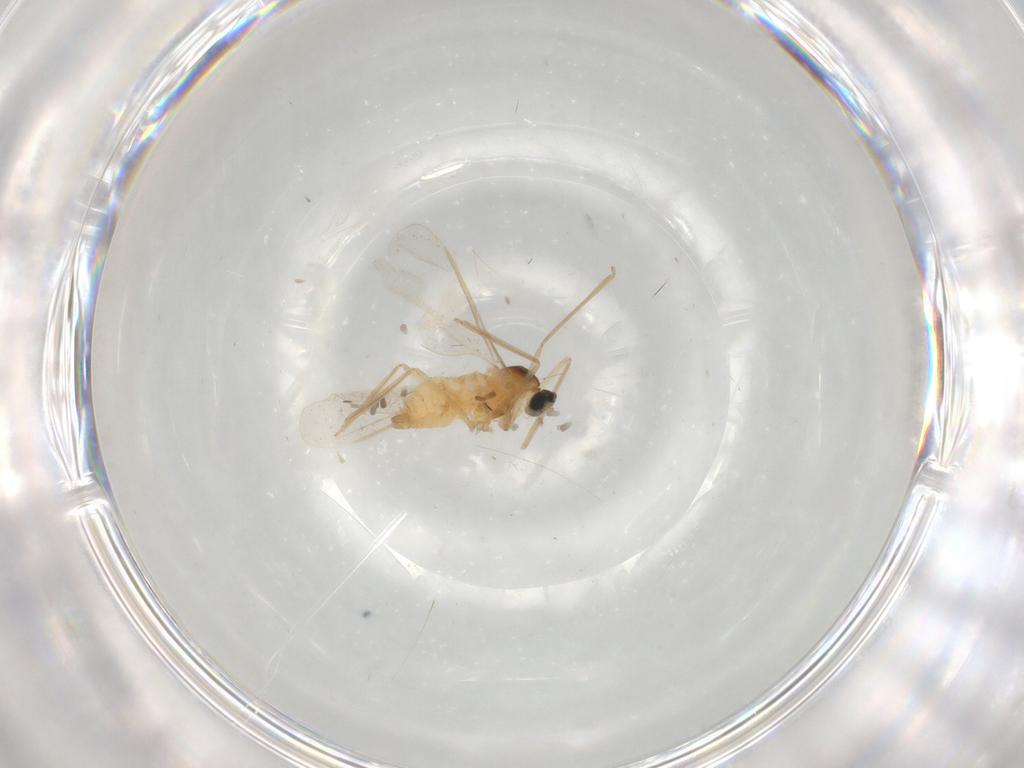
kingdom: Animalia
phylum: Arthropoda
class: Insecta
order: Diptera
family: Cecidomyiidae
